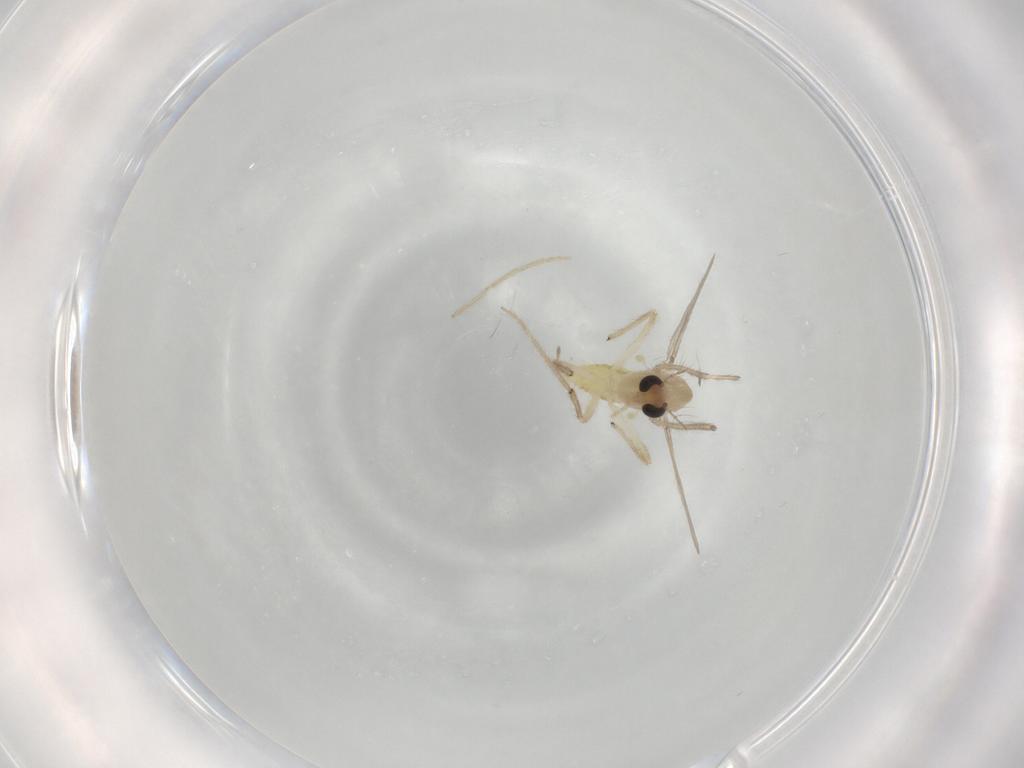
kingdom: Animalia
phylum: Arthropoda
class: Insecta
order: Diptera
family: Chironomidae
